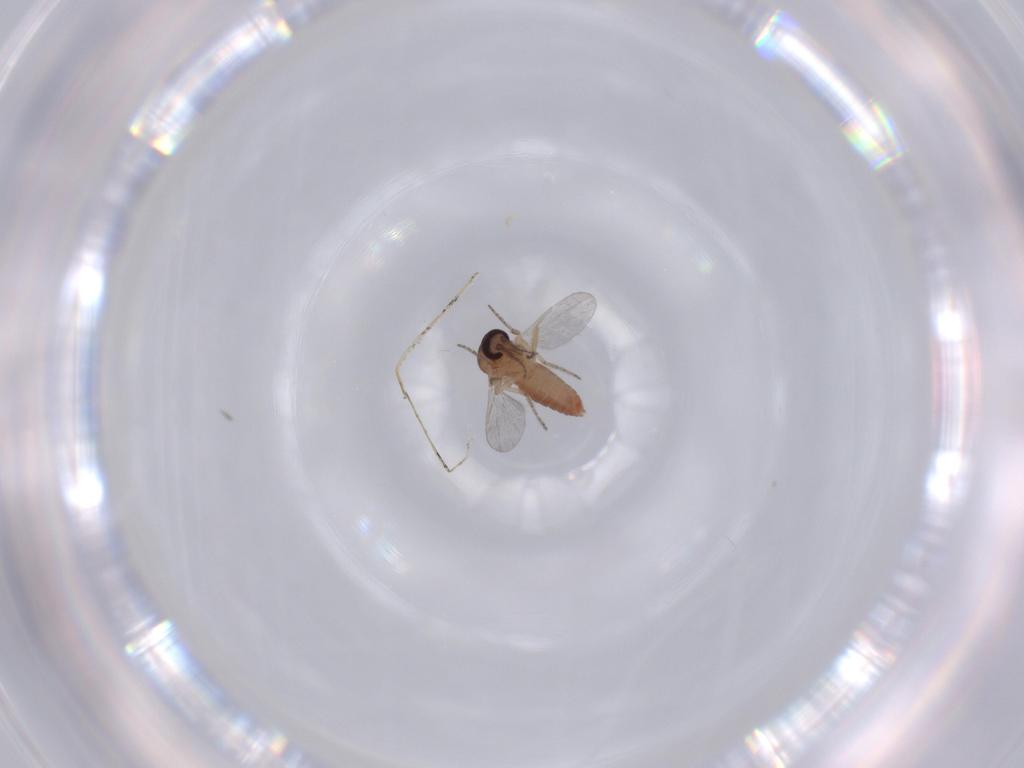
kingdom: Animalia
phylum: Arthropoda
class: Insecta
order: Diptera
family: Ceratopogonidae
